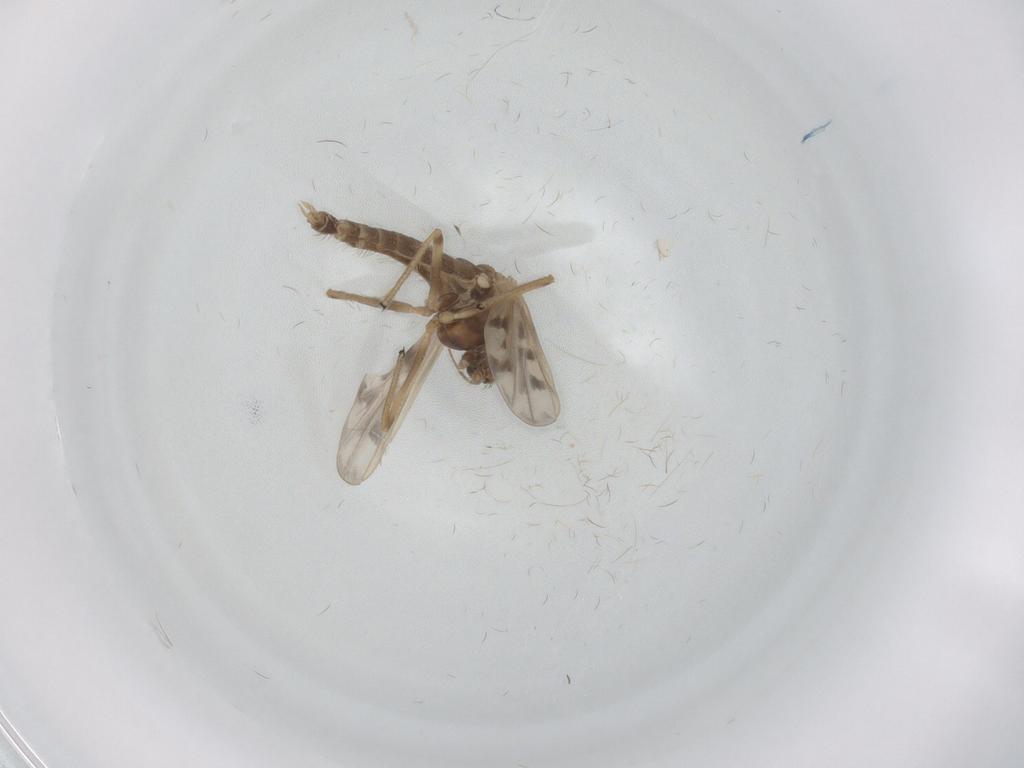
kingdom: Animalia
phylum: Arthropoda
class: Insecta
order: Diptera
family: Chironomidae
